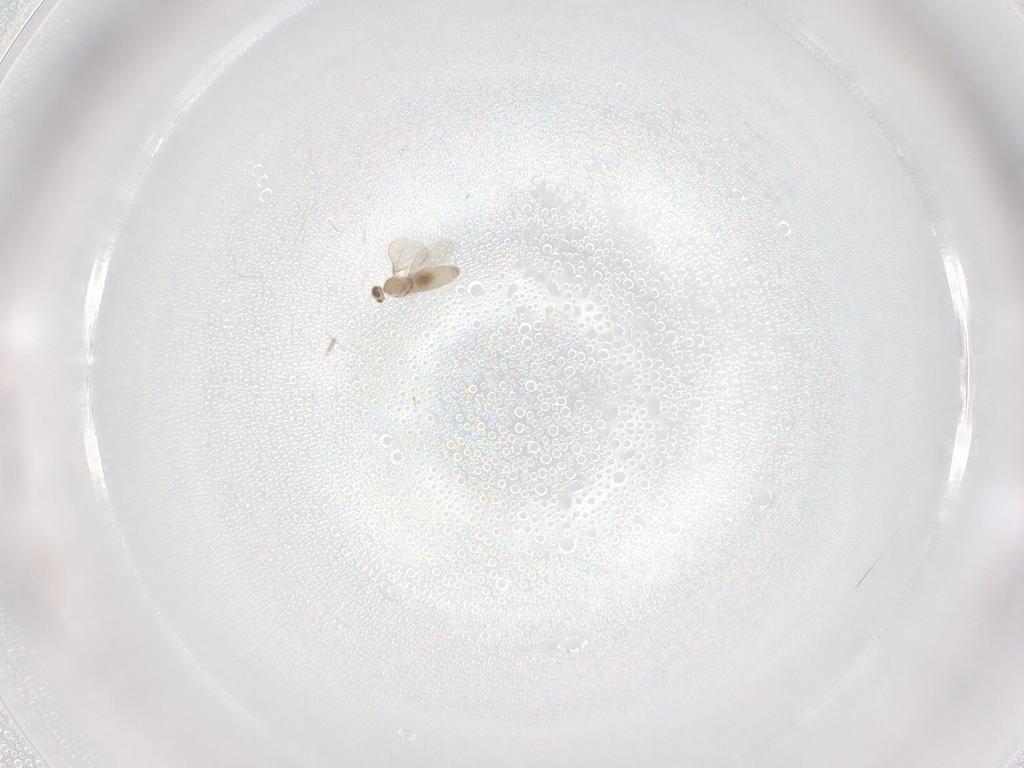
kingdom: Animalia
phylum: Arthropoda
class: Insecta
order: Diptera
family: Cecidomyiidae
